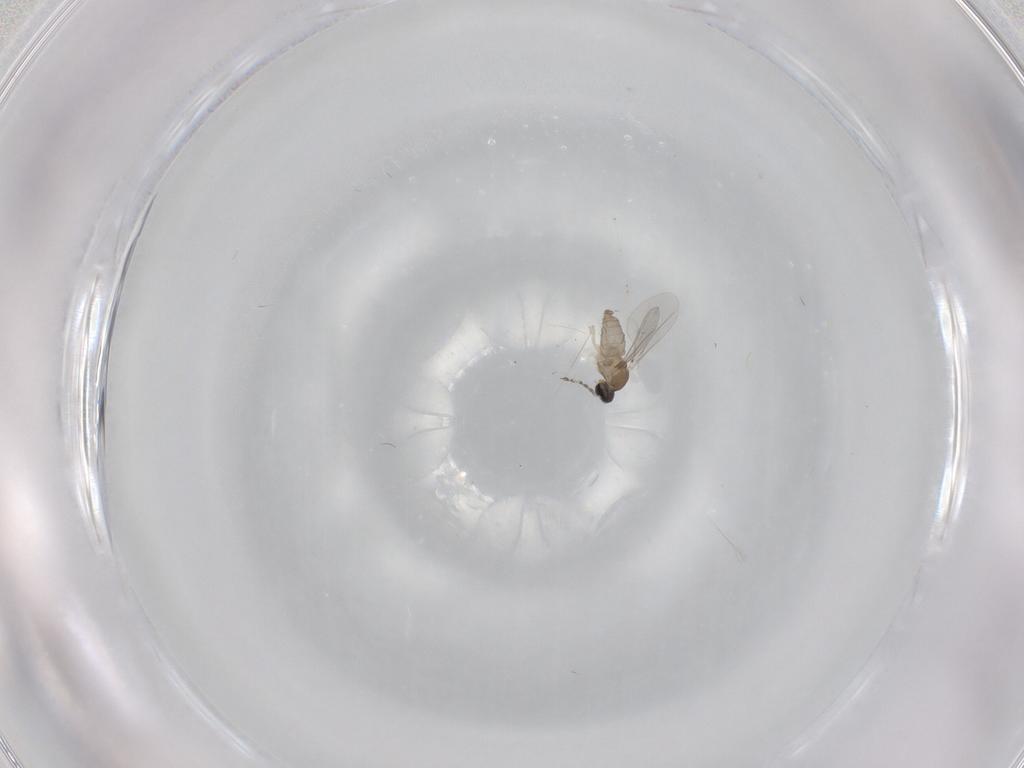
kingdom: Animalia
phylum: Arthropoda
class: Insecta
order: Diptera
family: Cecidomyiidae
